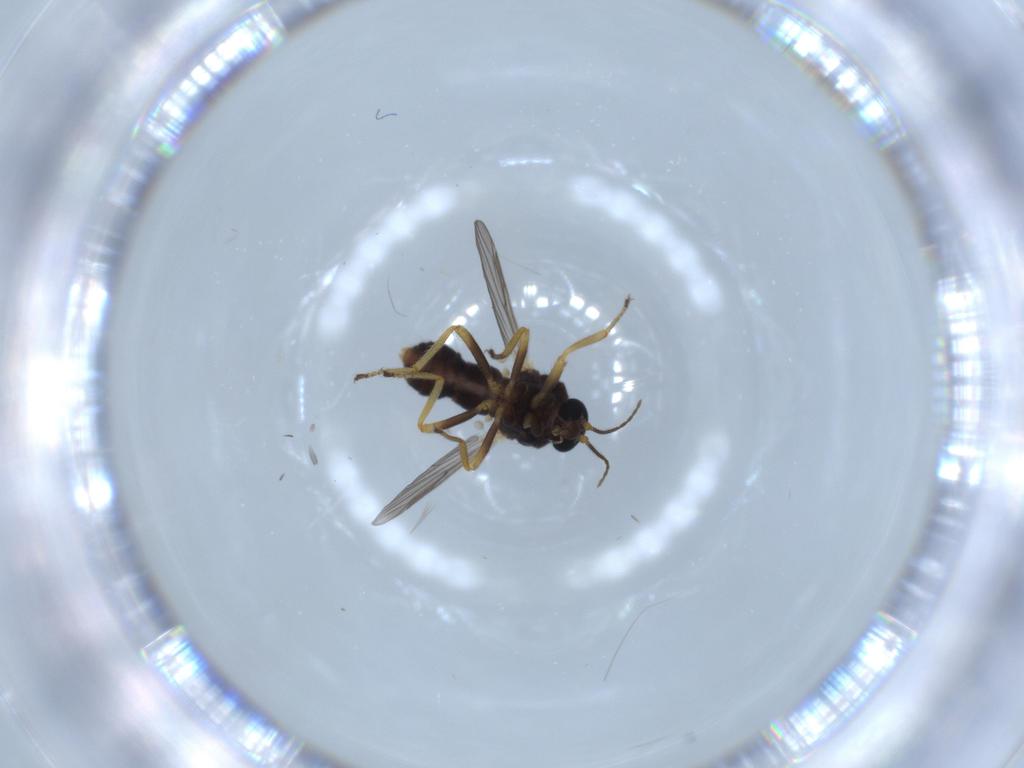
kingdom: Animalia
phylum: Arthropoda
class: Insecta
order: Diptera
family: Ceratopogonidae
